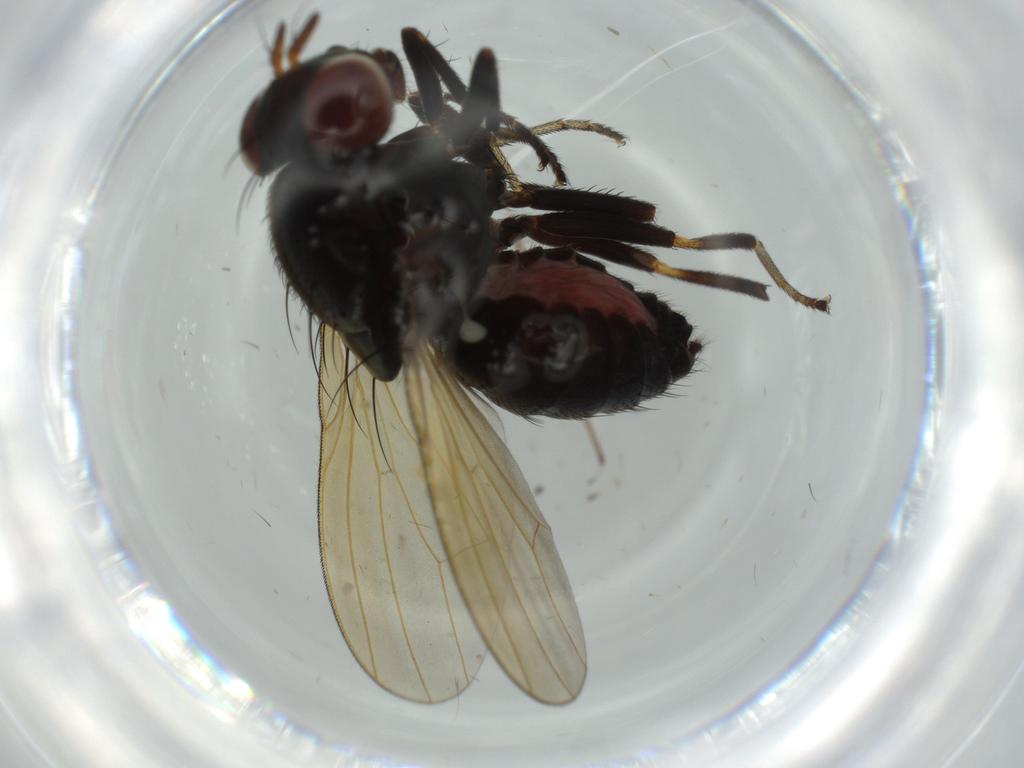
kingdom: Animalia
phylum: Arthropoda
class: Insecta
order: Diptera
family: Lauxaniidae
